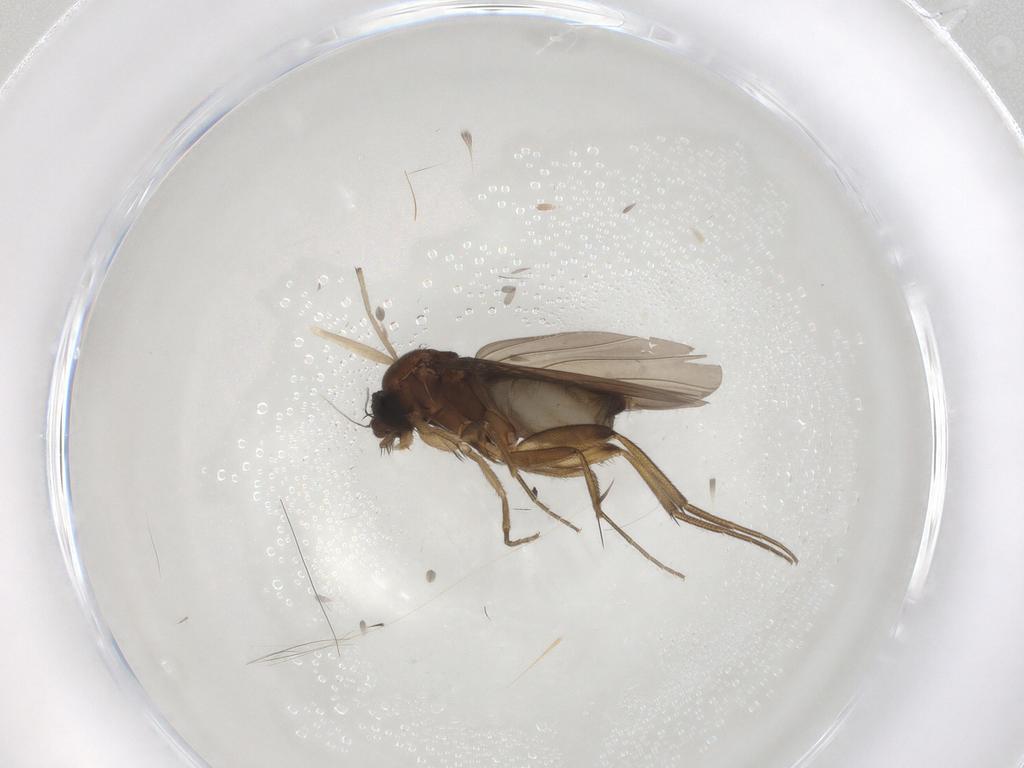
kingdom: Animalia
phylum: Arthropoda
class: Insecta
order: Diptera
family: Phoridae
